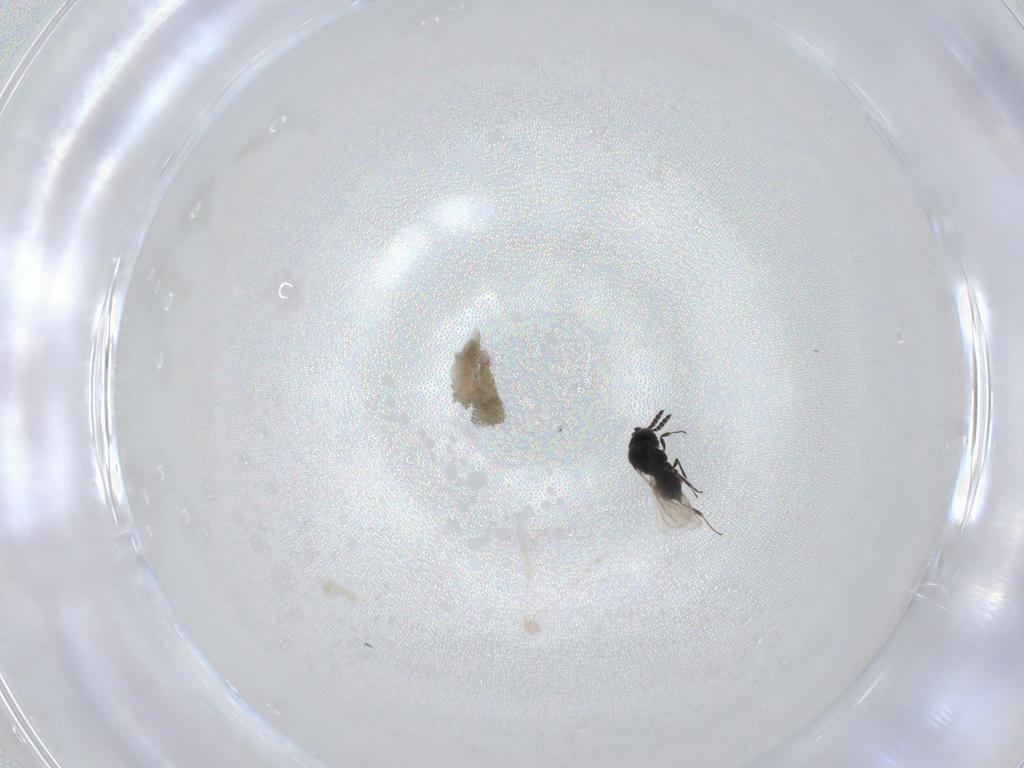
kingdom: Animalia
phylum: Arthropoda
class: Insecta
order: Hymenoptera
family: Scelionidae
